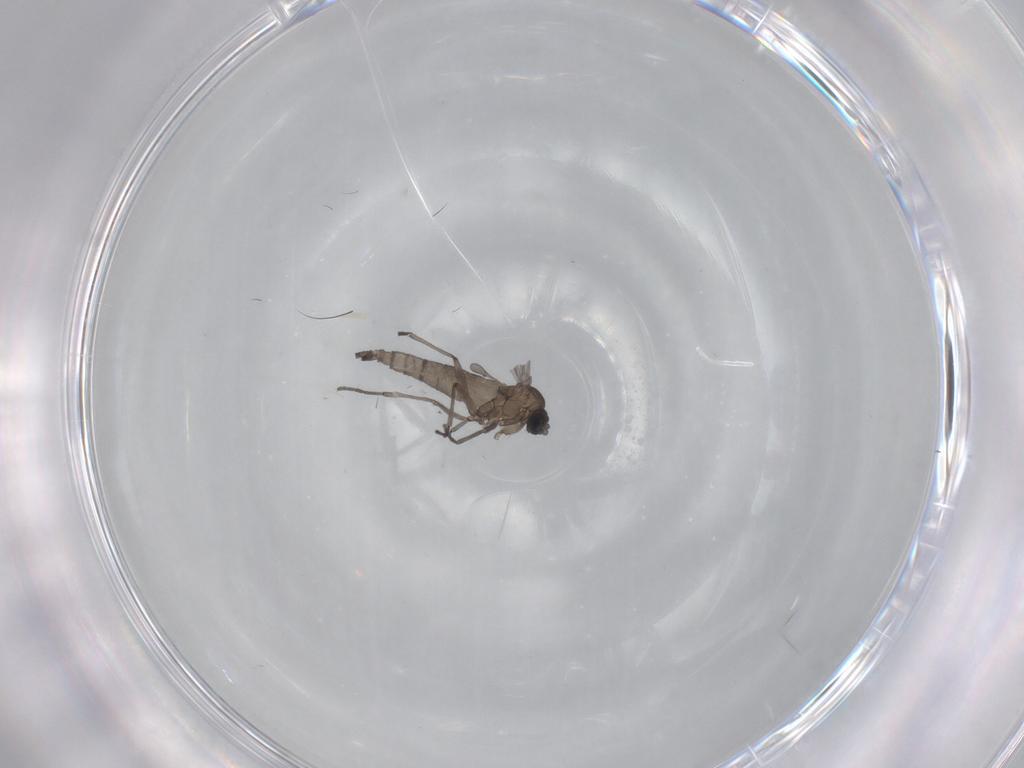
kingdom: Animalia
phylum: Arthropoda
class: Insecta
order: Diptera
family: Sciaridae
